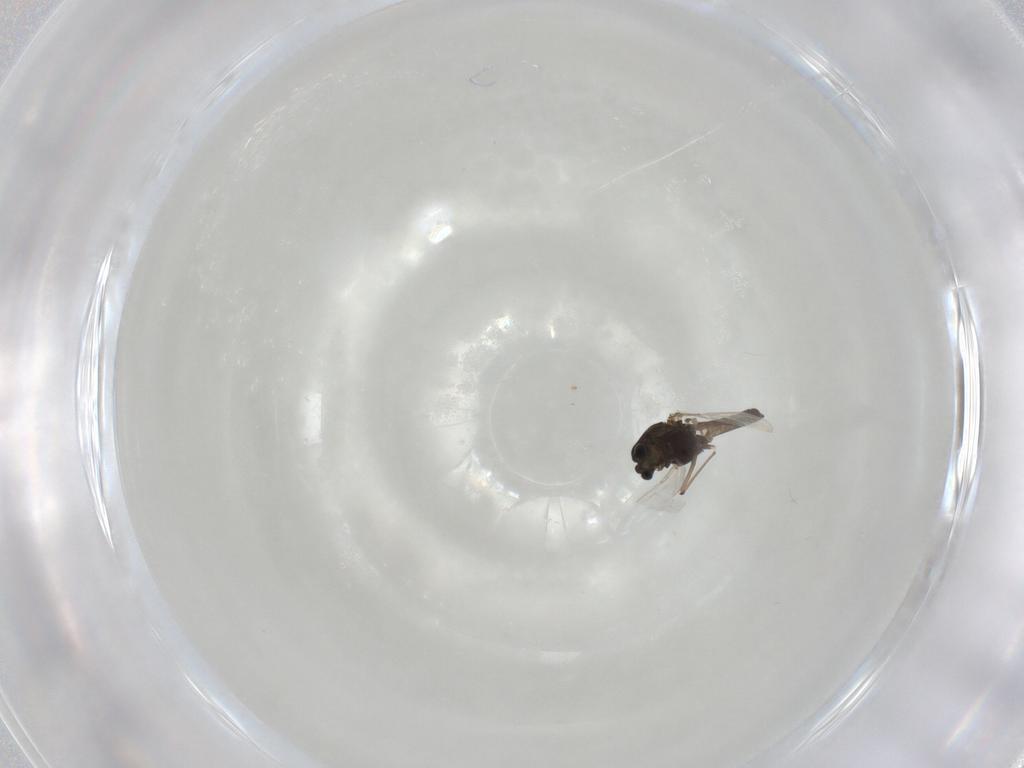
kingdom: Animalia
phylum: Arthropoda
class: Insecta
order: Diptera
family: Chironomidae
